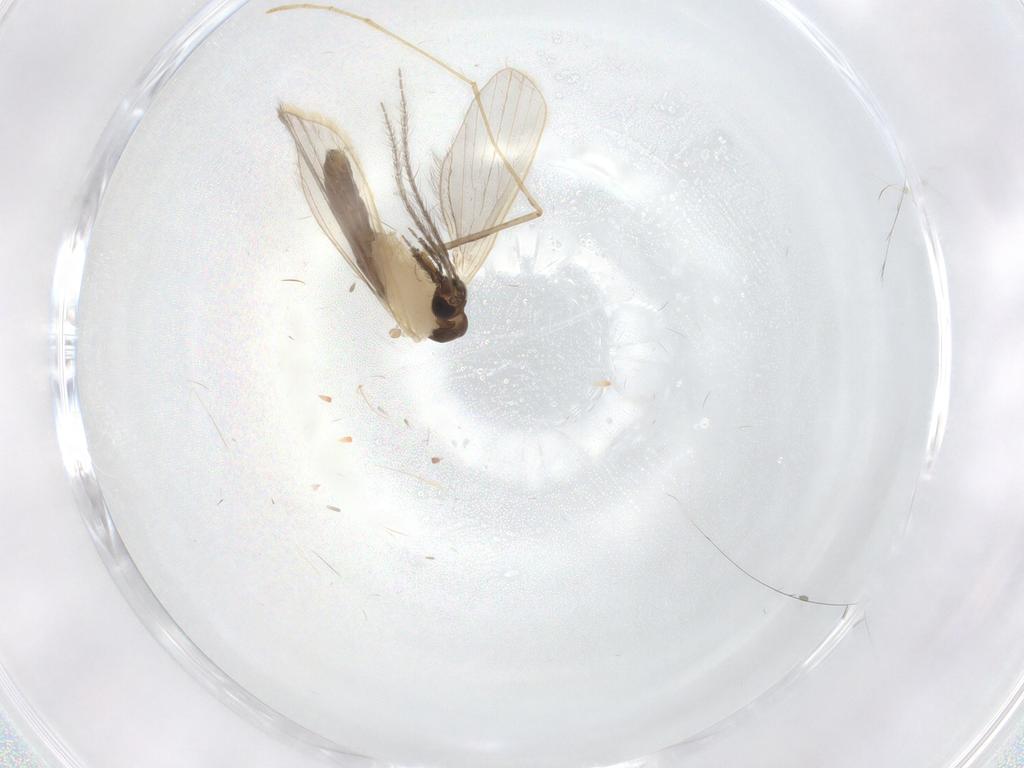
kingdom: Animalia
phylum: Arthropoda
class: Insecta
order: Diptera
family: Psychodidae
